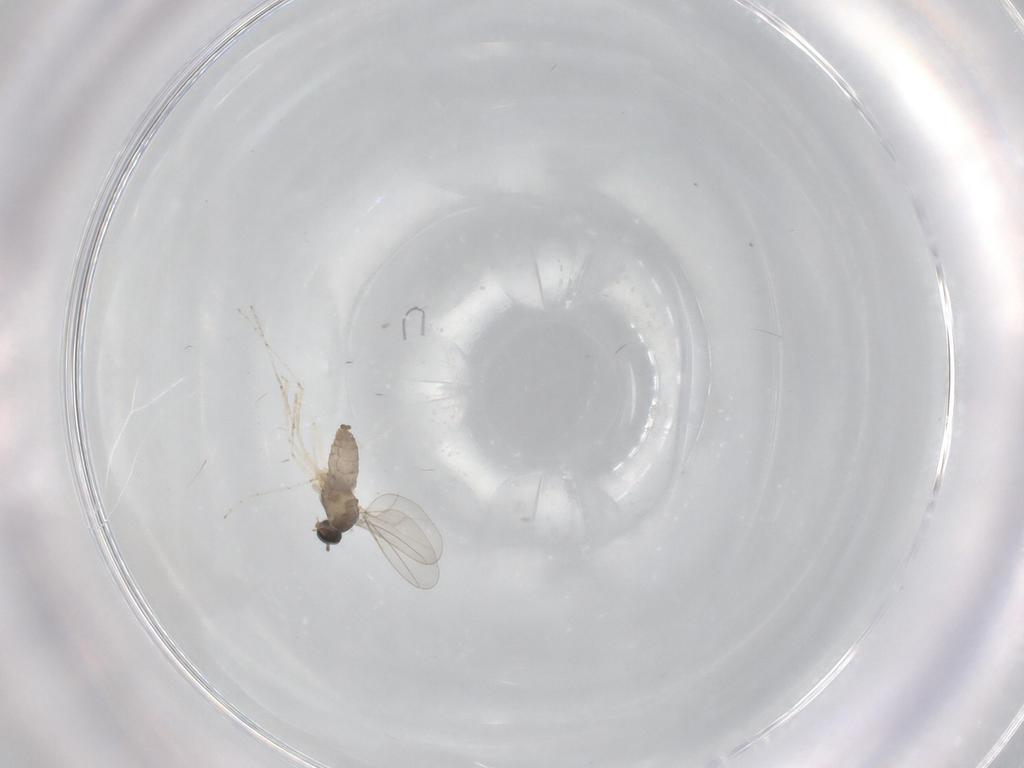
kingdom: Animalia
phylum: Arthropoda
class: Insecta
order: Diptera
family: Cecidomyiidae
